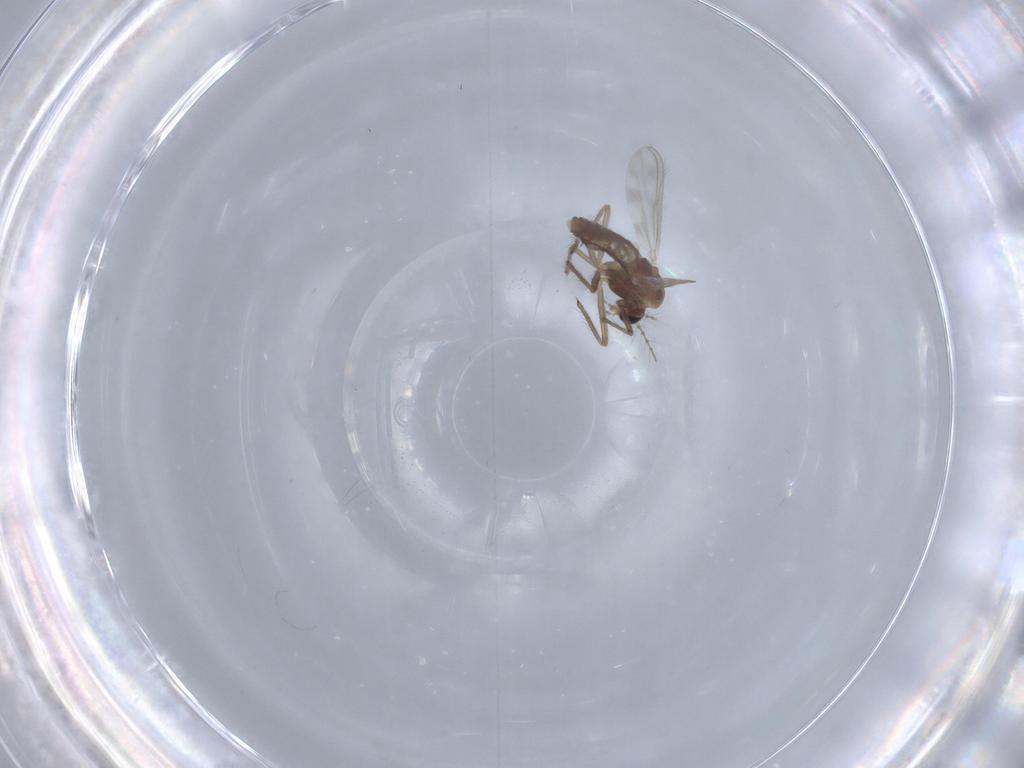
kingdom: Animalia
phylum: Arthropoda
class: Insecta
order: Diptera
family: Chironomidae
